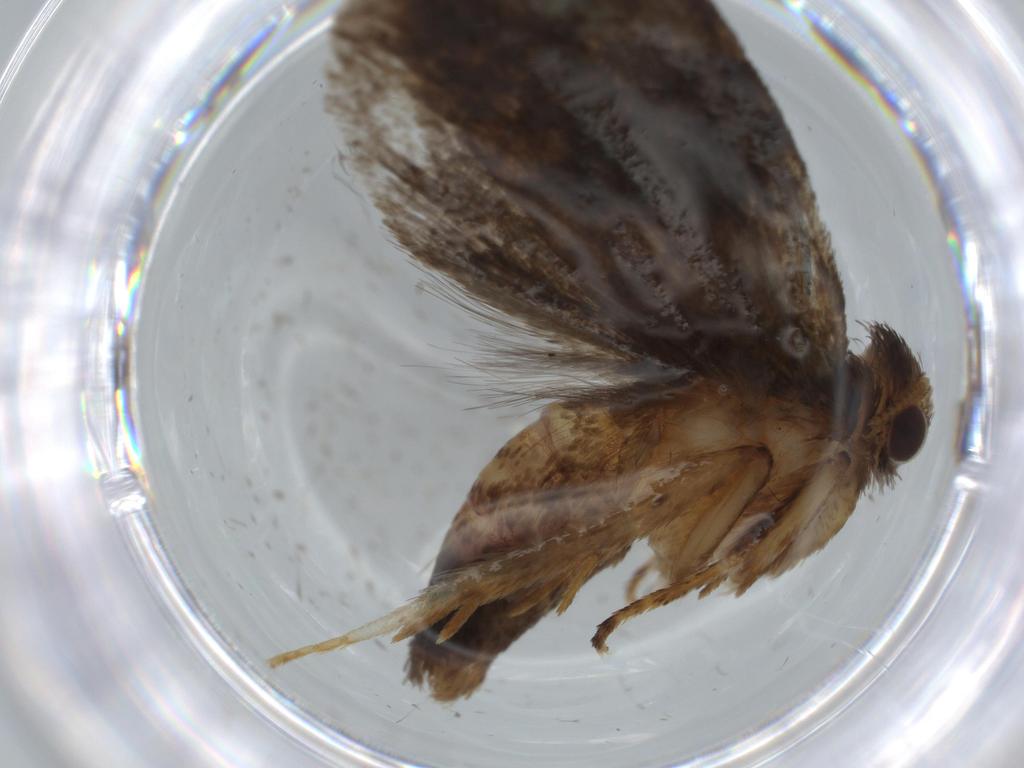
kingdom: Animalia
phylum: Arthropoda
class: Insecta
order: Lepidoptera
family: Tineidae
